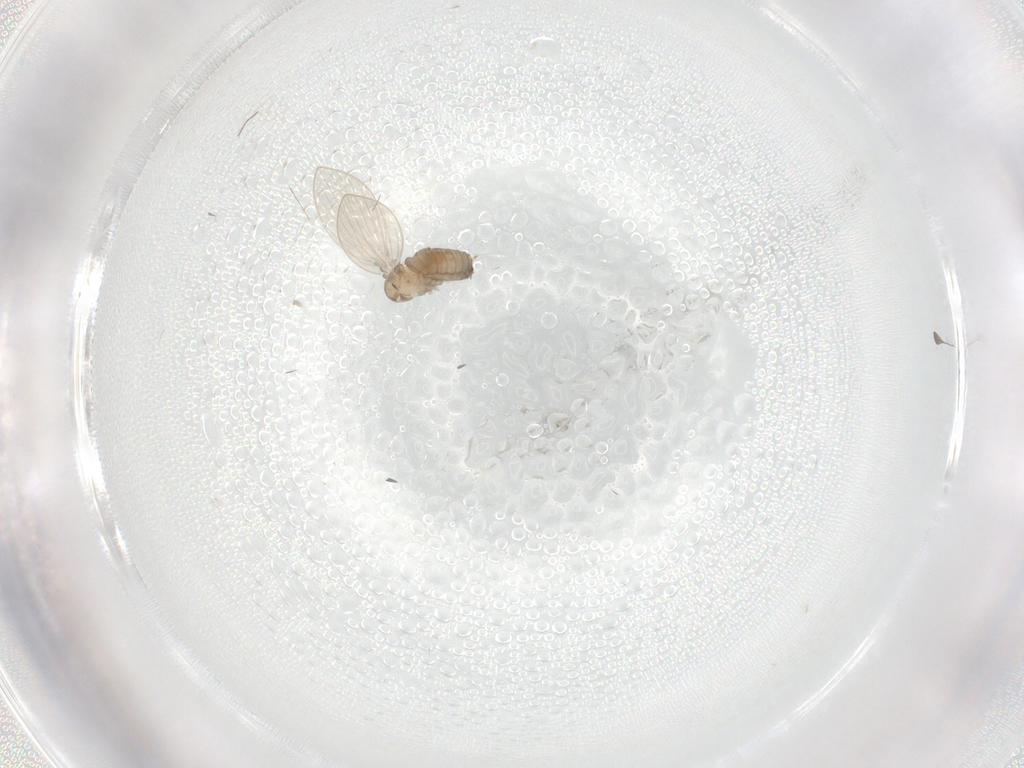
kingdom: Animalia
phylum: Arthropoda
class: Insecta
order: Diptera
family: Psychodidae
